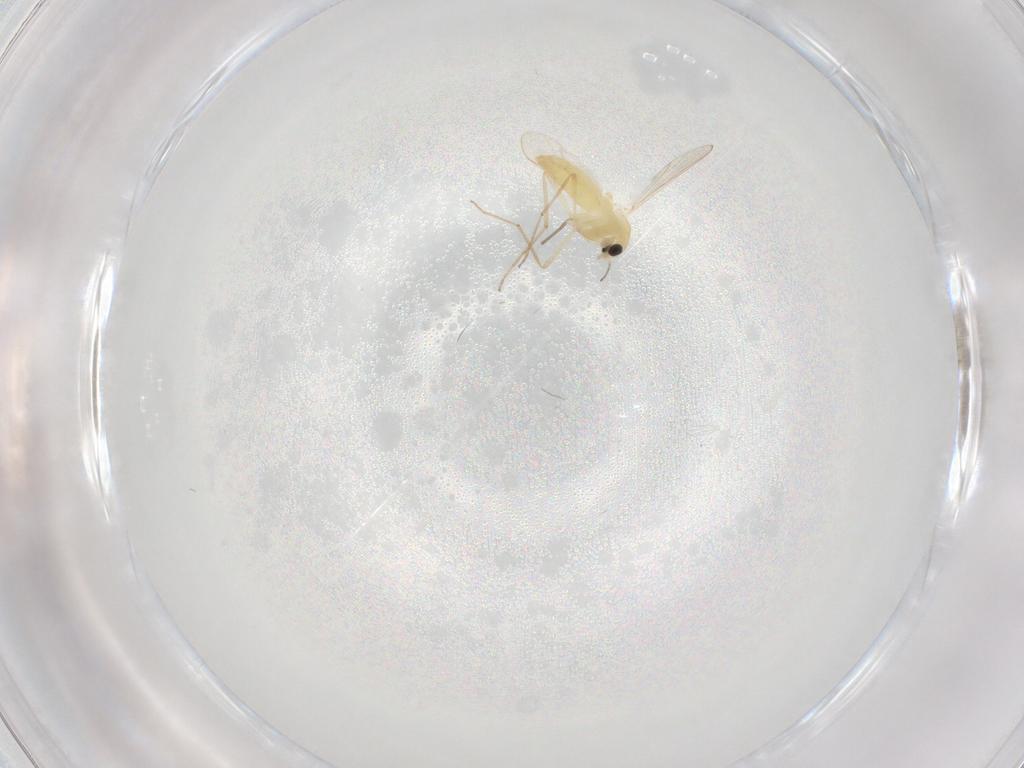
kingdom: Animalia
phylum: Arthropoda
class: Insecta
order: Diptera
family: Chironomidae
